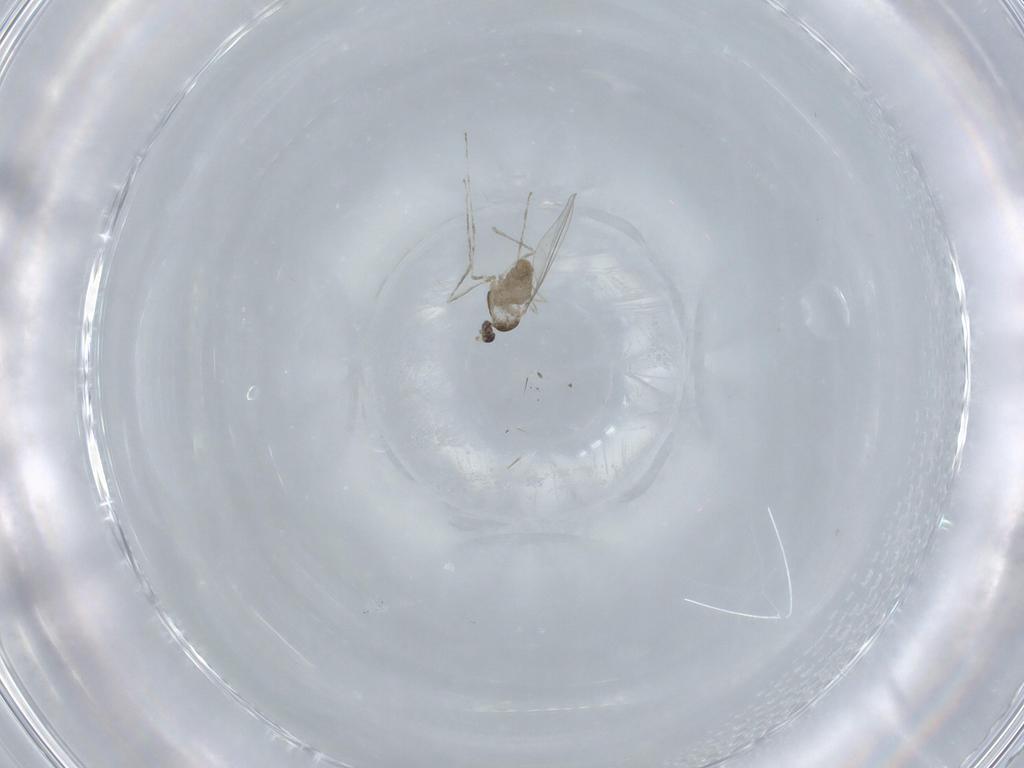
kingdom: Animalia
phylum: Arthropoda
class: Insecta
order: Diptera
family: Cecidomyiidae
